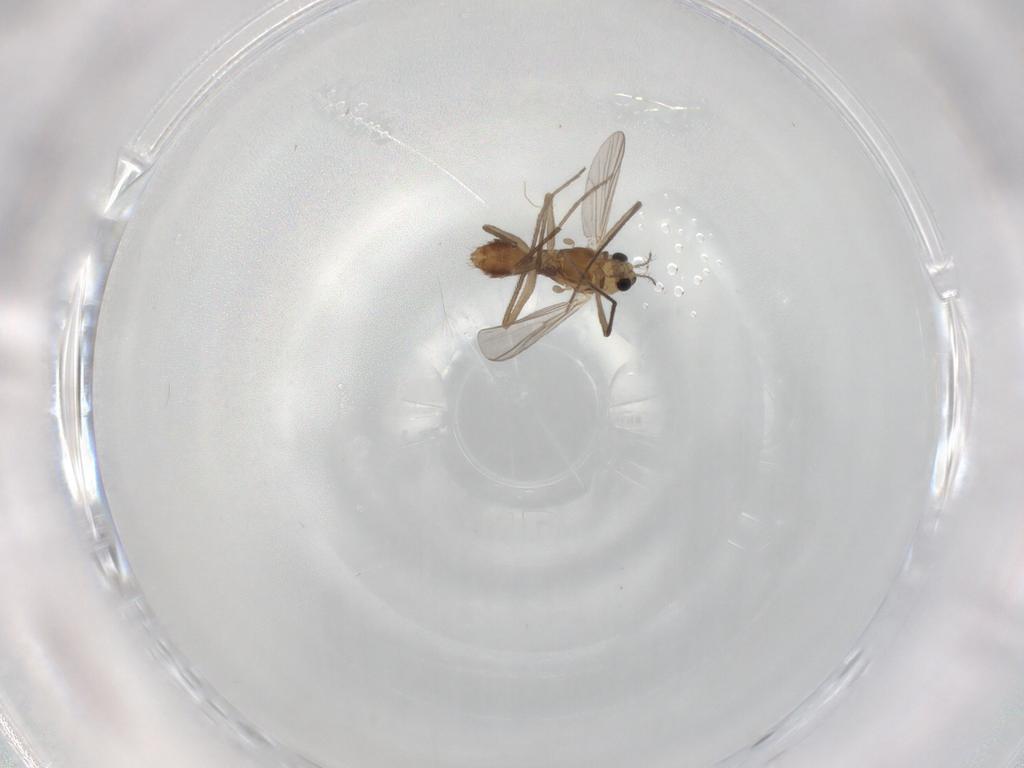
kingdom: Animalia
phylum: Arthropoda
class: Insecta
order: Diptera
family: Chironomidae
